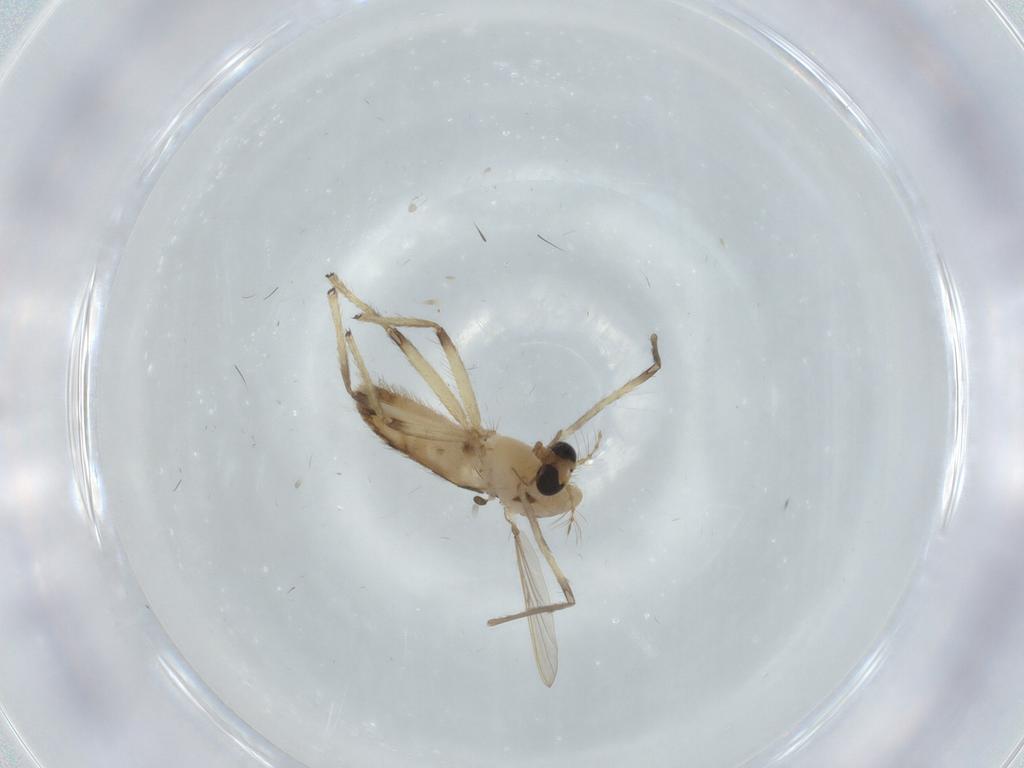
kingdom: Animalia
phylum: Arthropoda
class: Insecta
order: Diptera
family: Chironomidae
